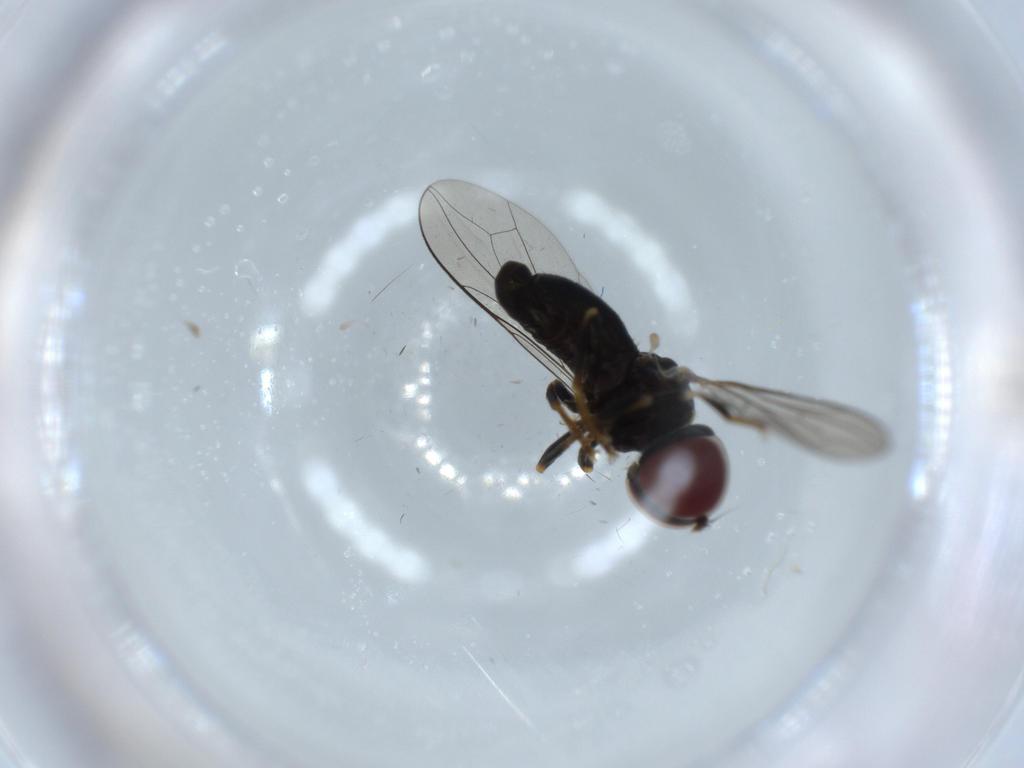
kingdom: Animalia
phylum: Arthropoda
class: Insecta
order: Diptera
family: Pipunculidae
